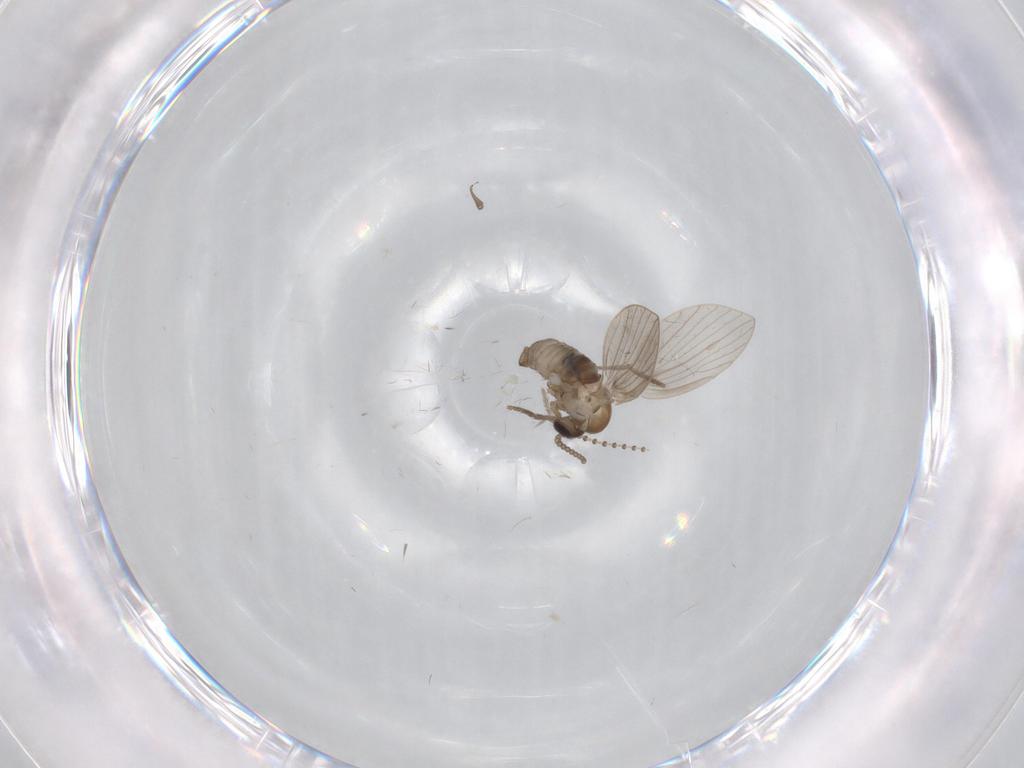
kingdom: Animalia
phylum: Arthropoda
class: Insecta
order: Diptera
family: Psychodidae
